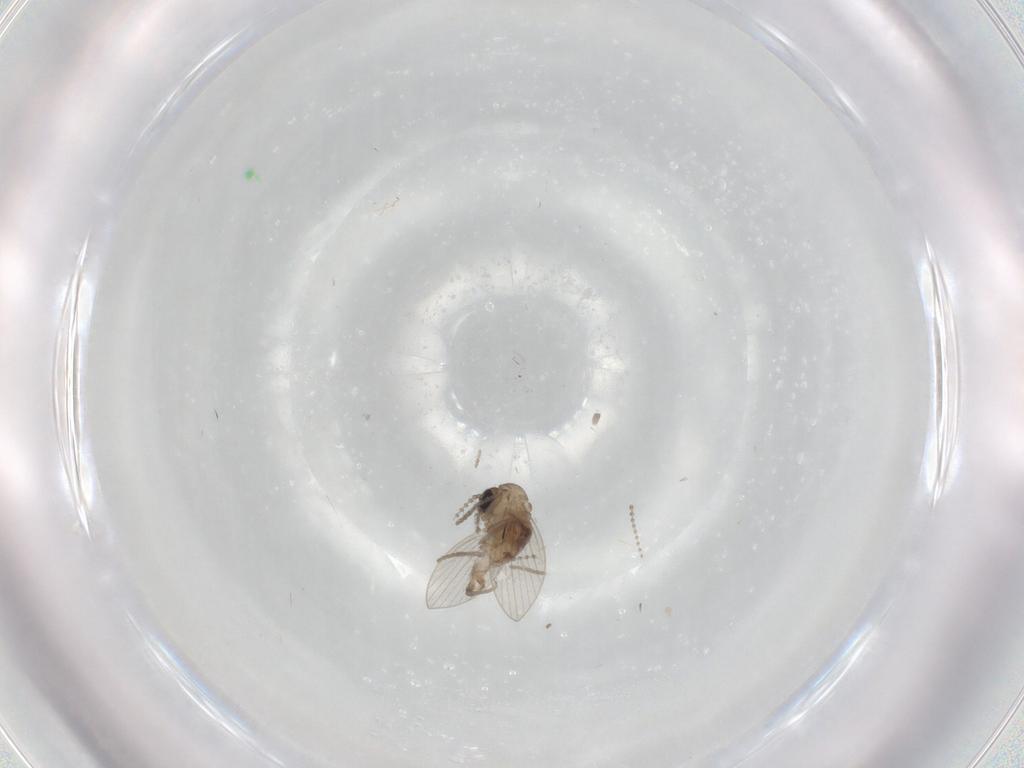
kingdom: Animalia
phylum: Arthropoda
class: Insecta
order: Diptera
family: Psychodidae
